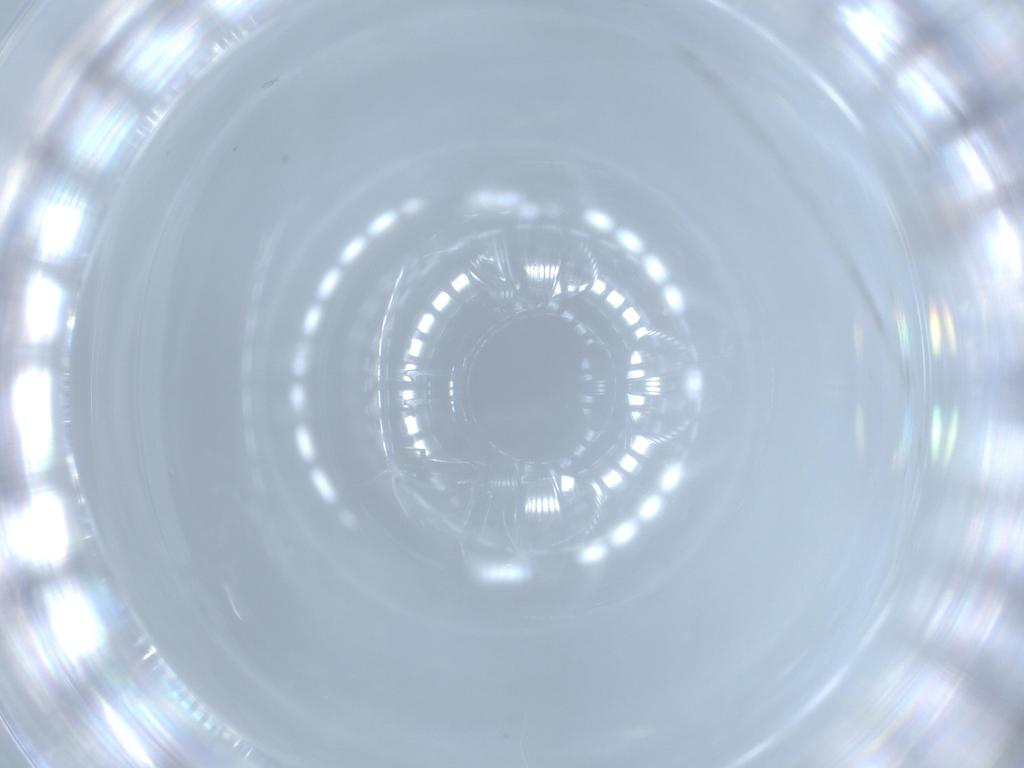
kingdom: Animalia
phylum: Arthropoda
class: Insecta
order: Hymenoptera
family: Trichogrammatidae
